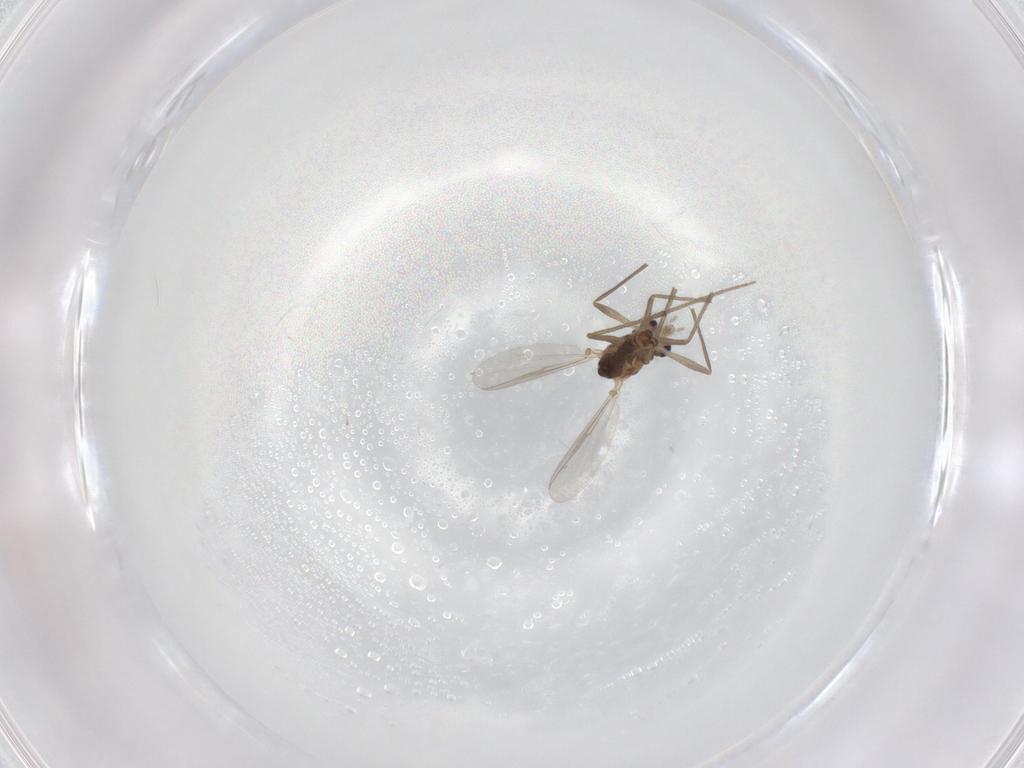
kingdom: Animalia
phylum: Arthropoda
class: Insecta
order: Diptera
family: Chironomidae
